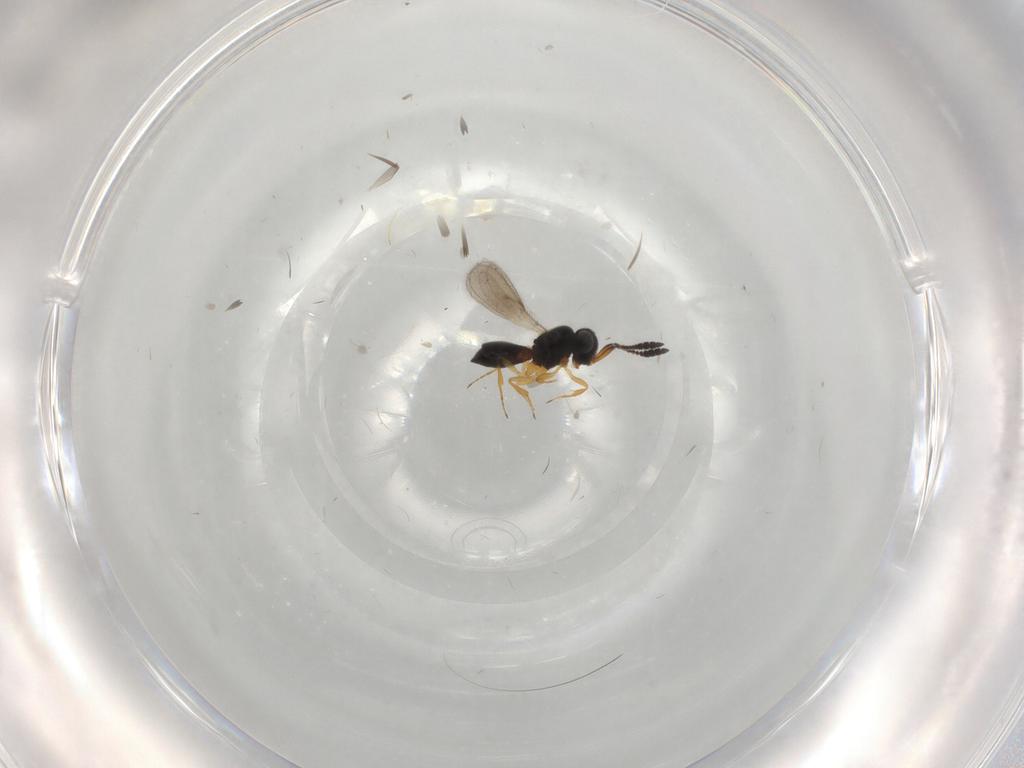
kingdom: Animalia
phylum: Arthropoda
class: Insecta
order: Hymenoptera
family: Scelionidae
